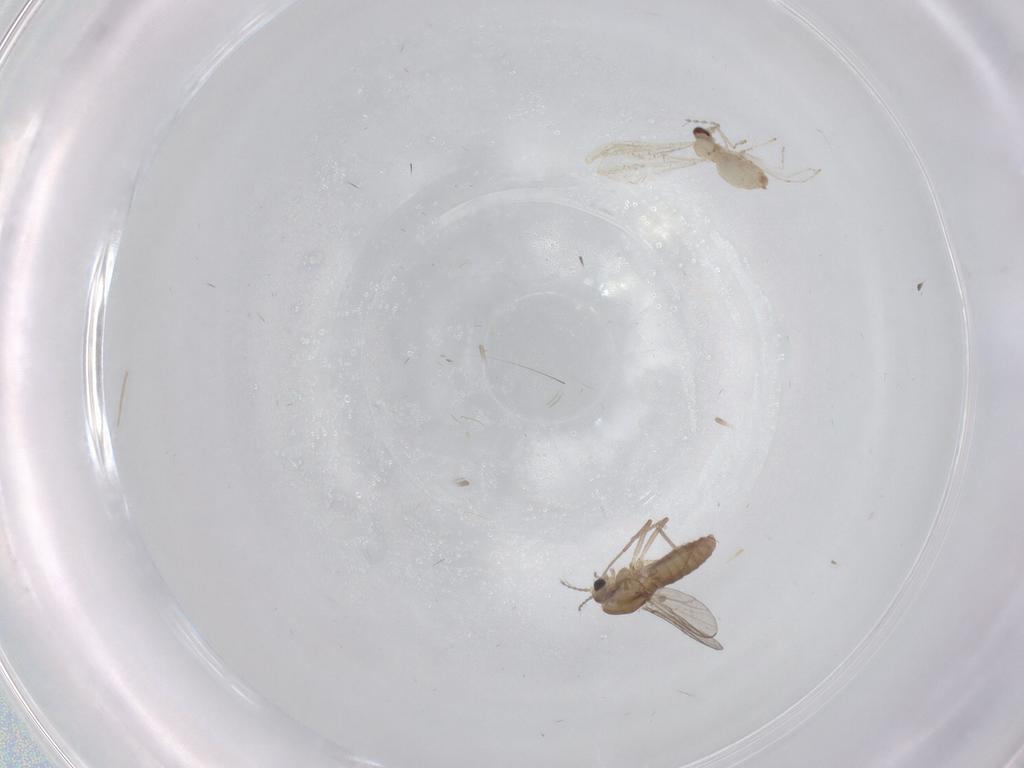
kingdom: Animalia
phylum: Arthropoda
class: Insecta
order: Diptera
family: Chironomidae
